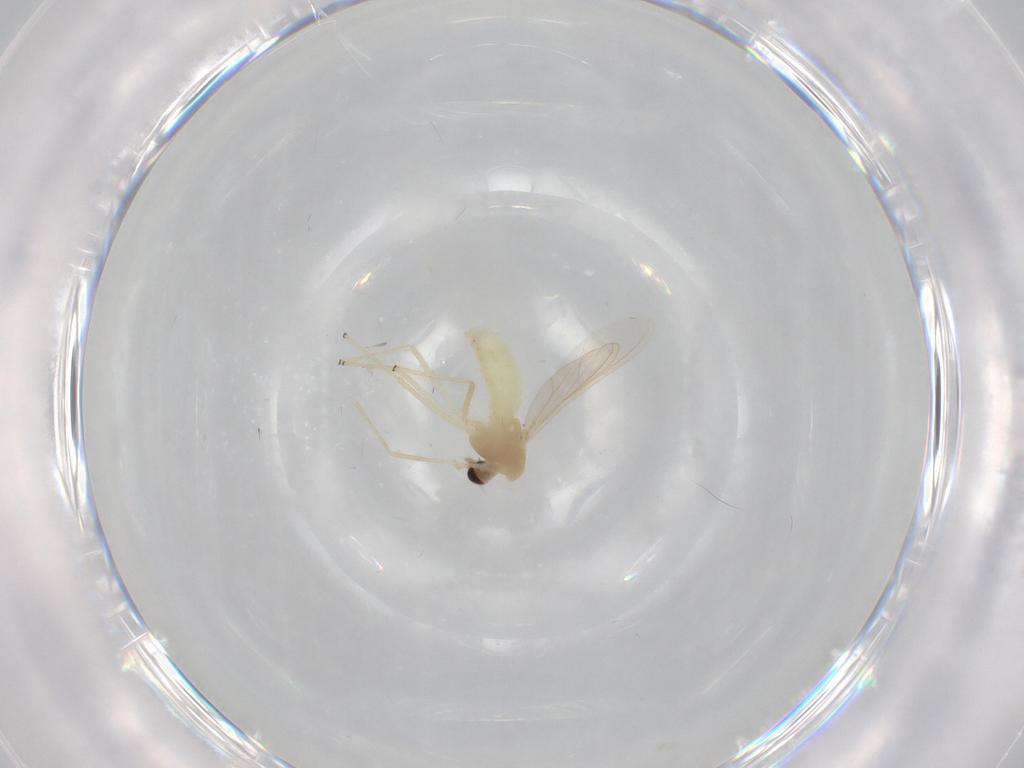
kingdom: Animalia
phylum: Arthropoda
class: Insecta
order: Diptera
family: Chironomidae
